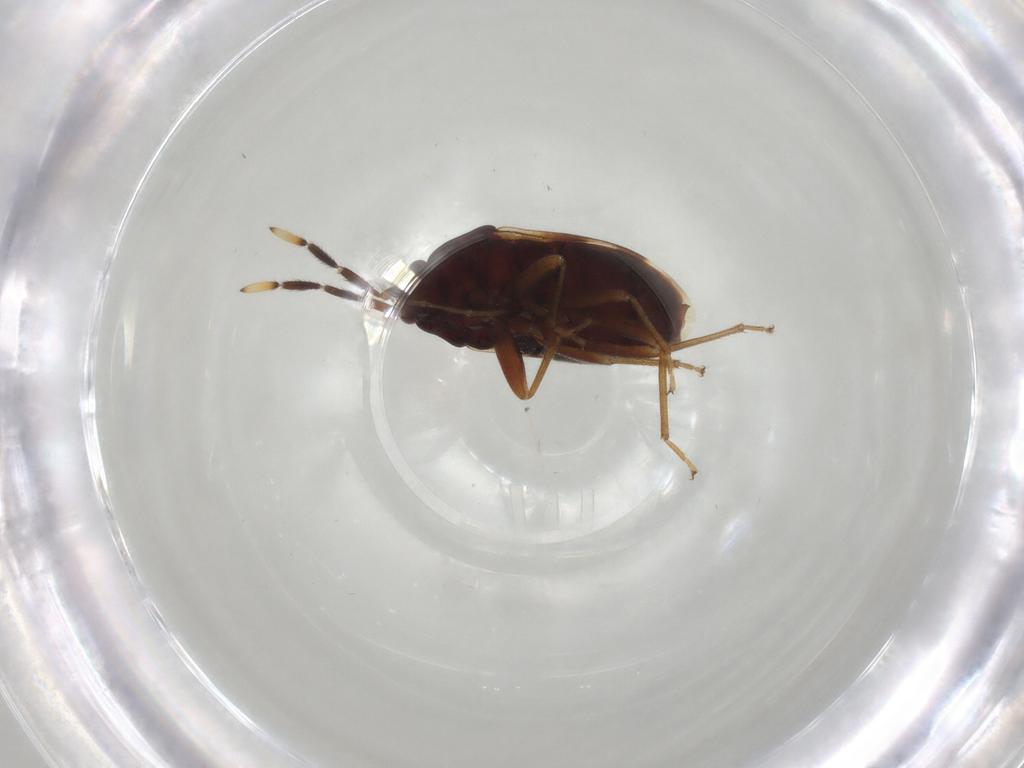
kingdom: Animalia
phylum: Arthropoda
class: Insecta
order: Hemiptera
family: Rhyparochromidae
